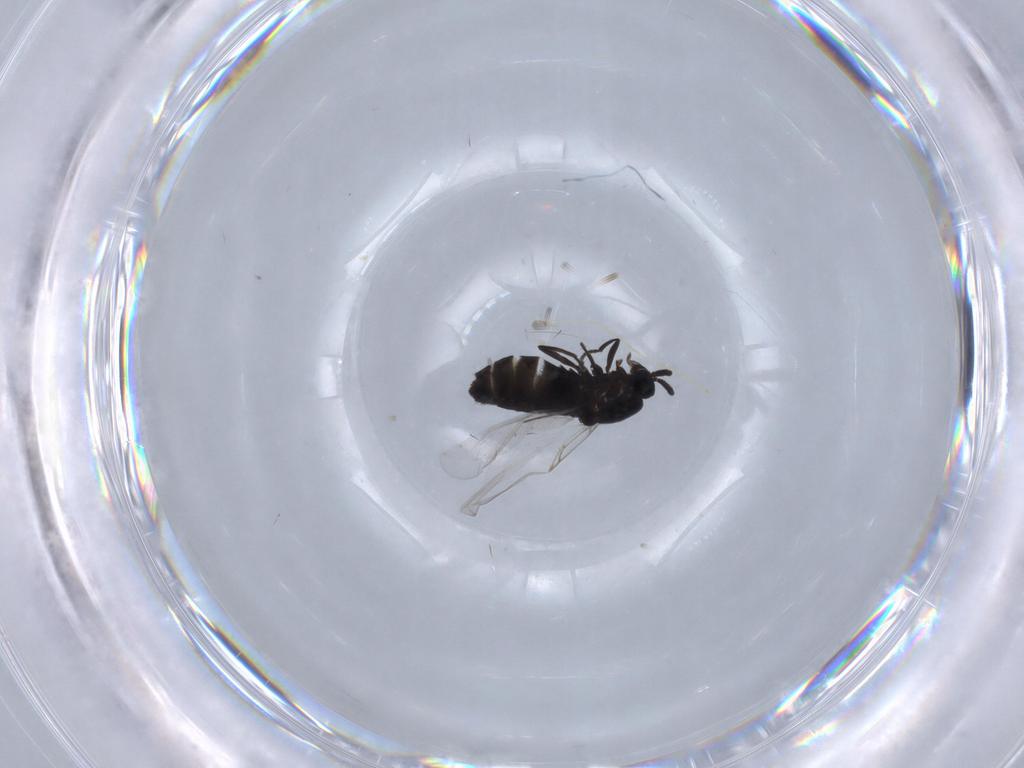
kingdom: Animalia
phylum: Arthropoda
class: Insecta
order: Diptera
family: Scatopsidae
